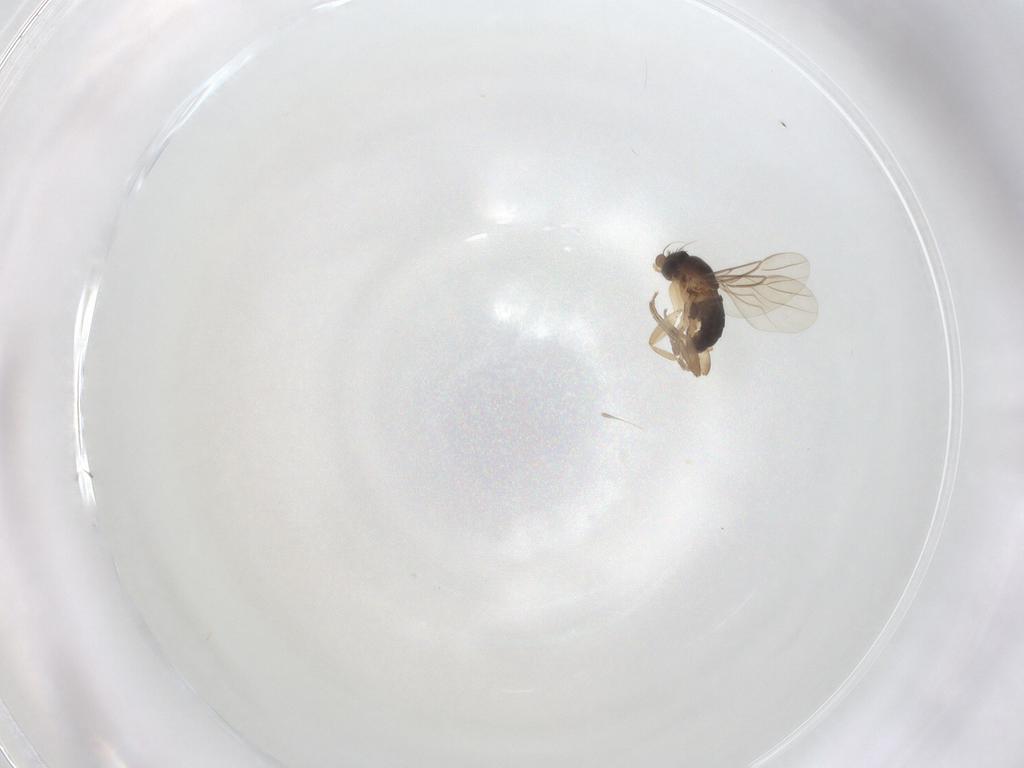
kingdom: Animalia
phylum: Arthropoda
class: Insecta
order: Diptera
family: Phoridae
